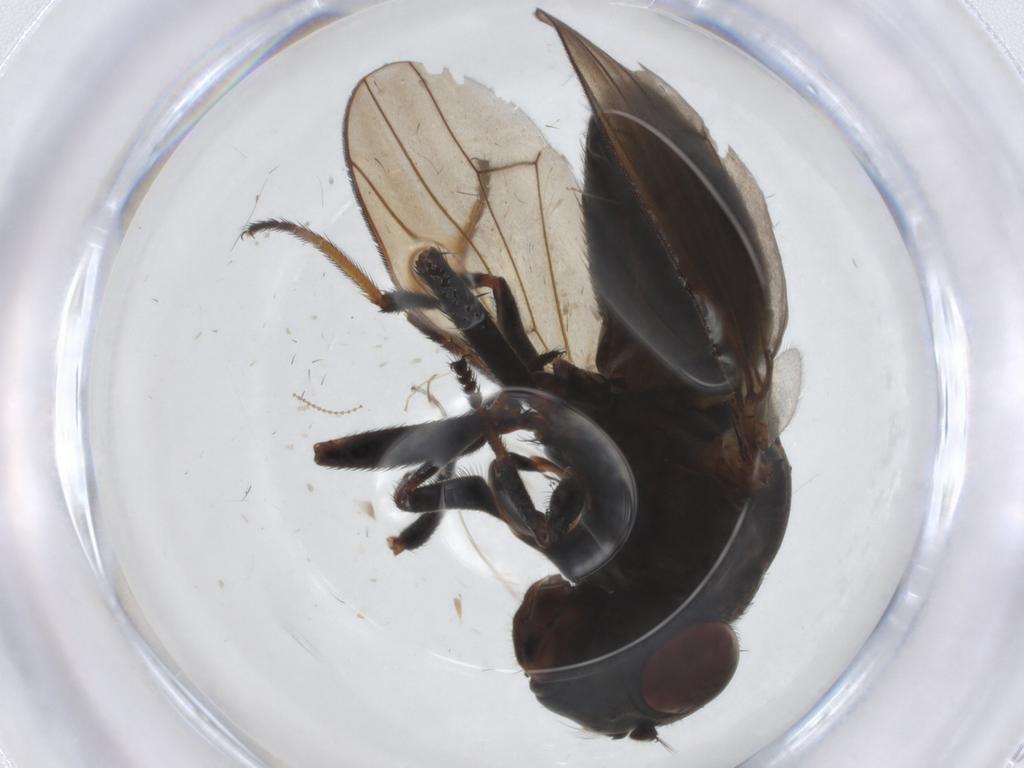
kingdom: Animalia
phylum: Arthropoda
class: Insecta
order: Diptera
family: Ephydridae
